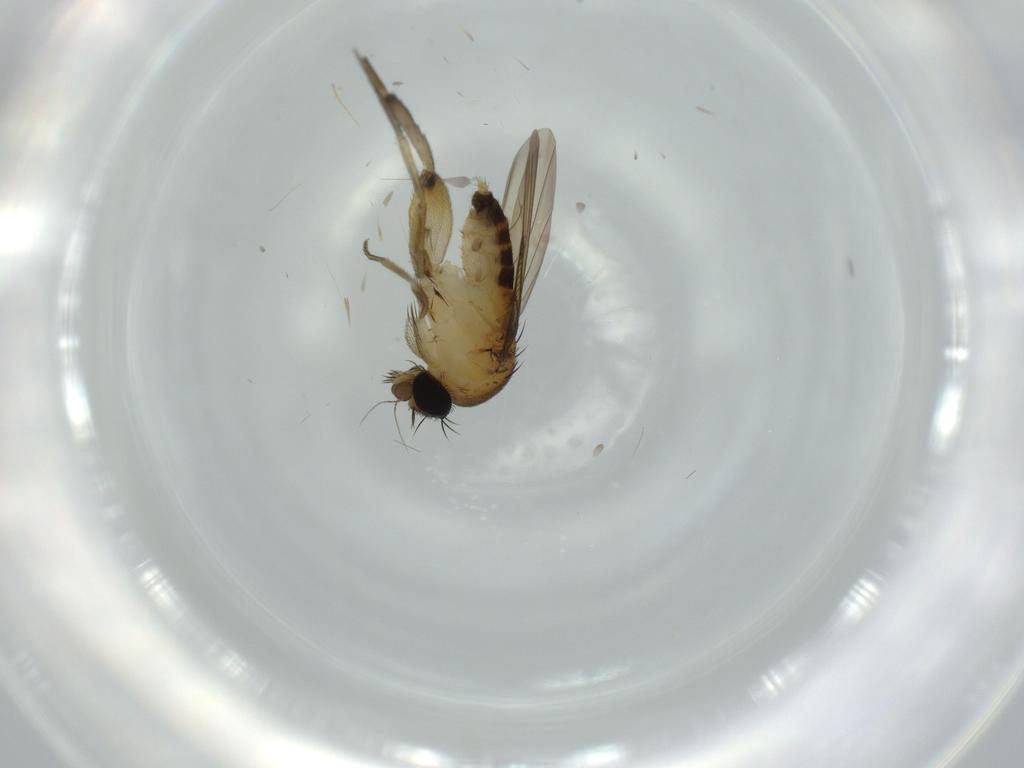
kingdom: Animalia
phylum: Arthropoda
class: Insecta
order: Diptera
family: Phoridae
